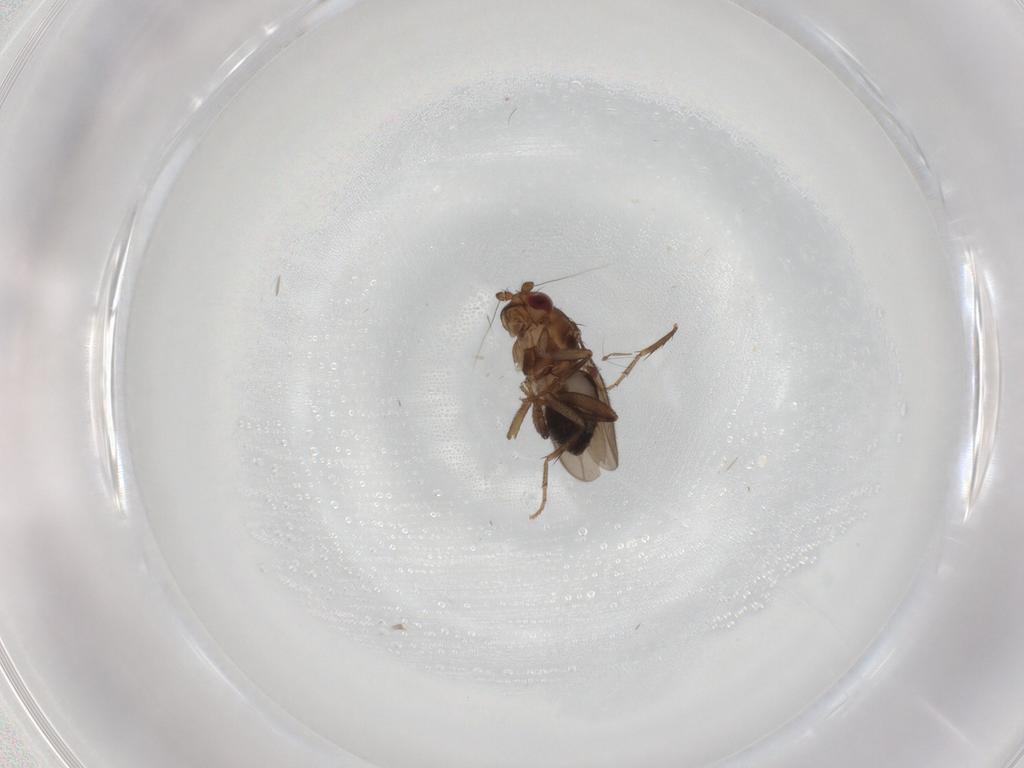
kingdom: Animalia
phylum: Arthropoda
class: Insecta
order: Diptera
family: Sphaeroceridae
